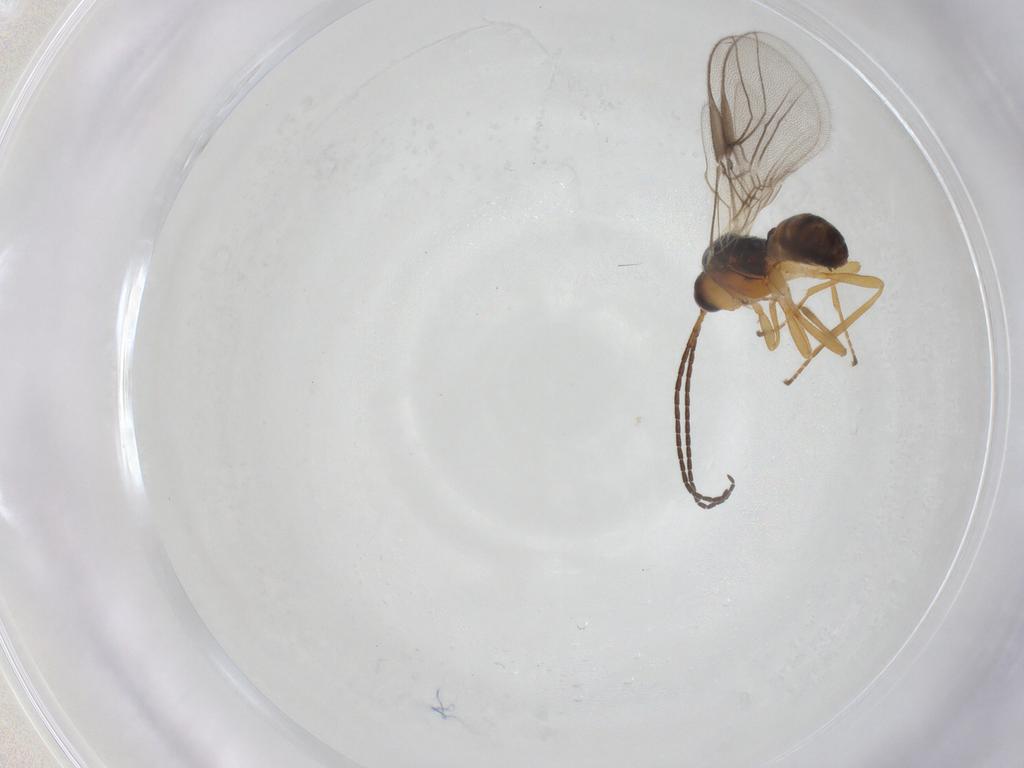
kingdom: Animalia
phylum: Arthropoda
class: Insecta
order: Hymenoptera
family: Braconidae
